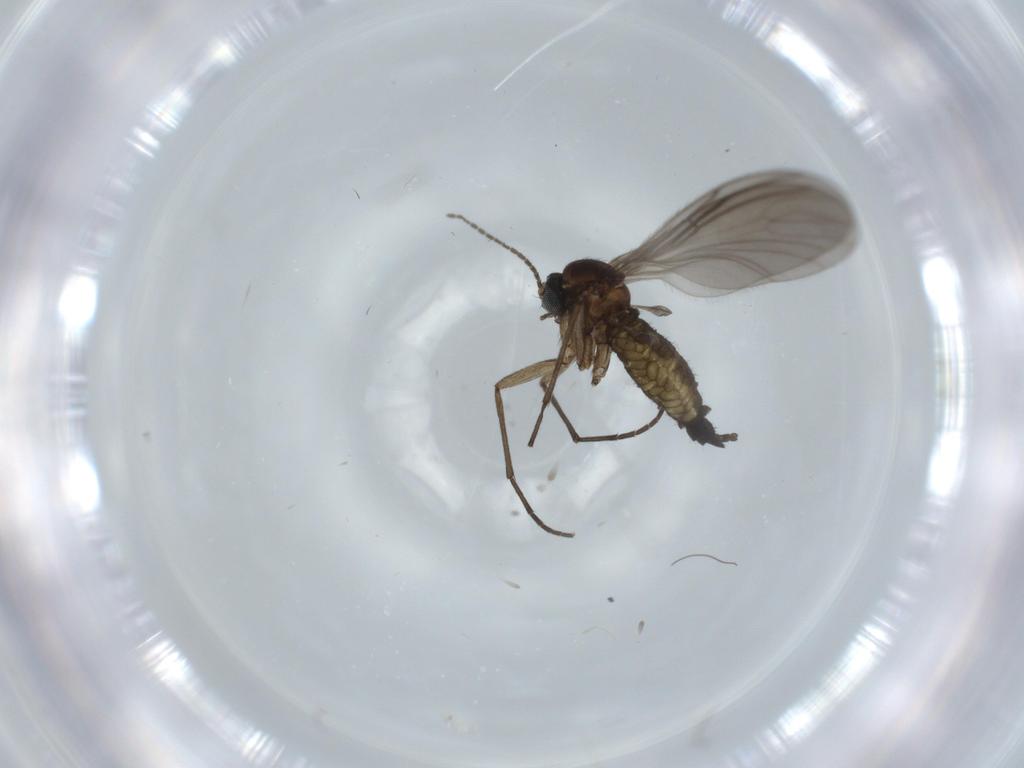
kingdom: Animalia
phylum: Arthropoda
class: Insecta
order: Diptera
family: Sciaridae
